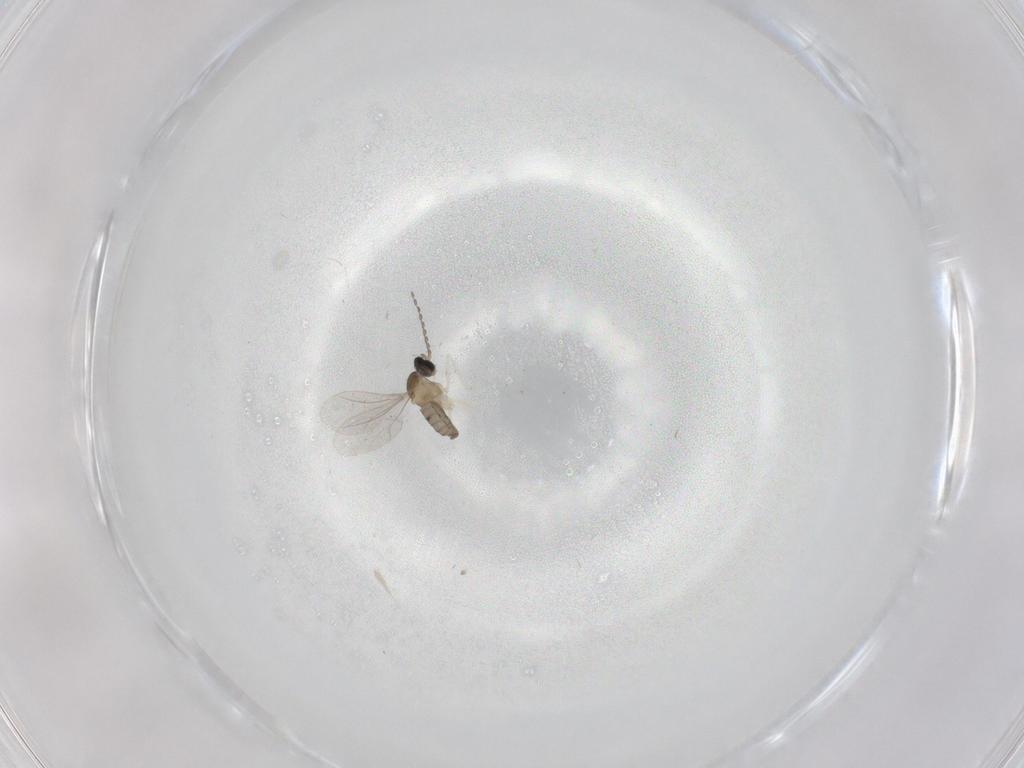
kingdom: Animalia
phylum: Arthropoda
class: Insecta
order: Diptera
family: Cecidomyiidae
